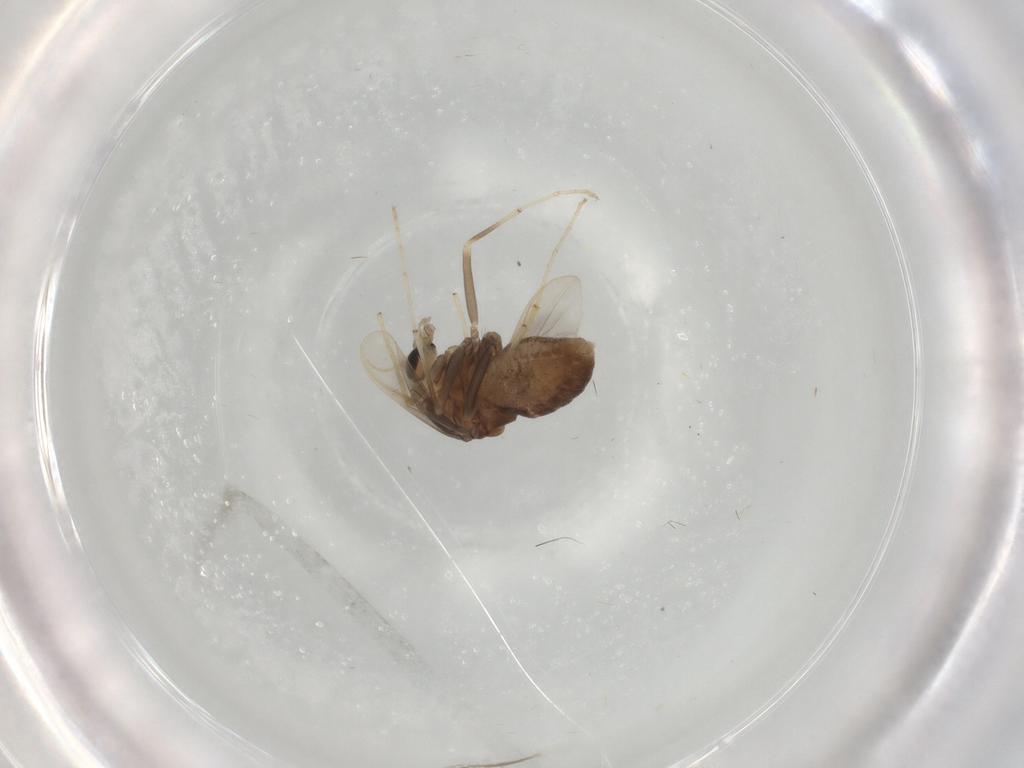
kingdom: Animalia
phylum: Arthropoda
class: Insecta
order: Diptera
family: Chironomidae
